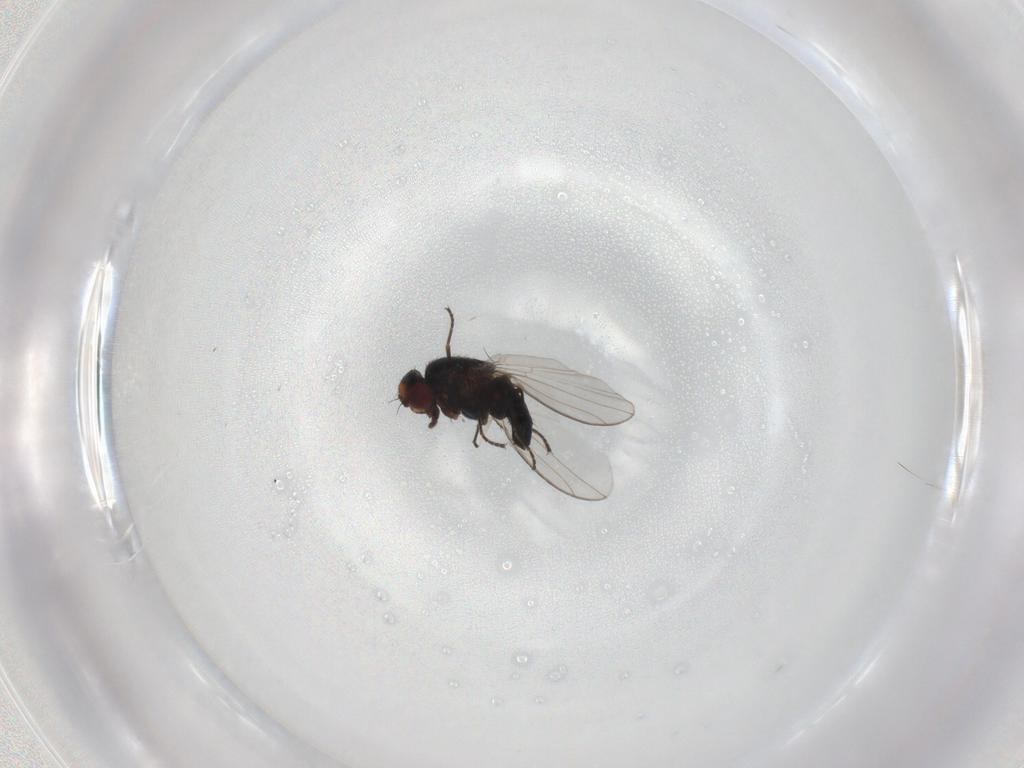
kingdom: Animalia
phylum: Arthropoda
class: Insecta
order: Diptera
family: Carnidae
